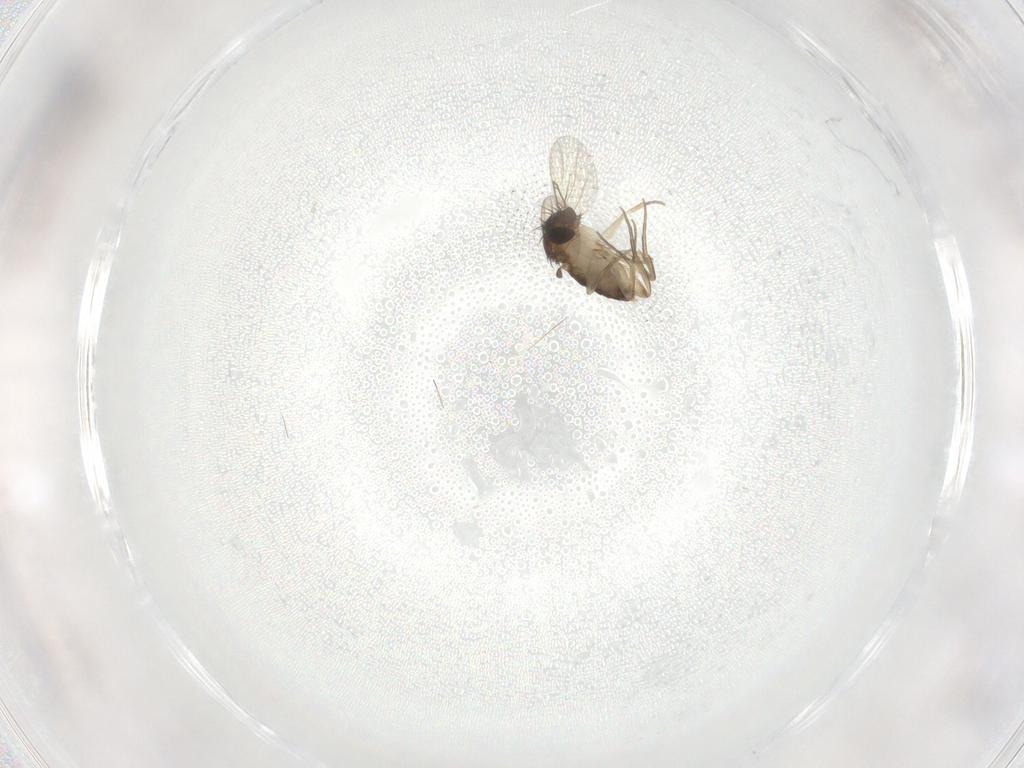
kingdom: Animalia
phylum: Arthropoda
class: Insecta
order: Diptera
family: Phoridae
